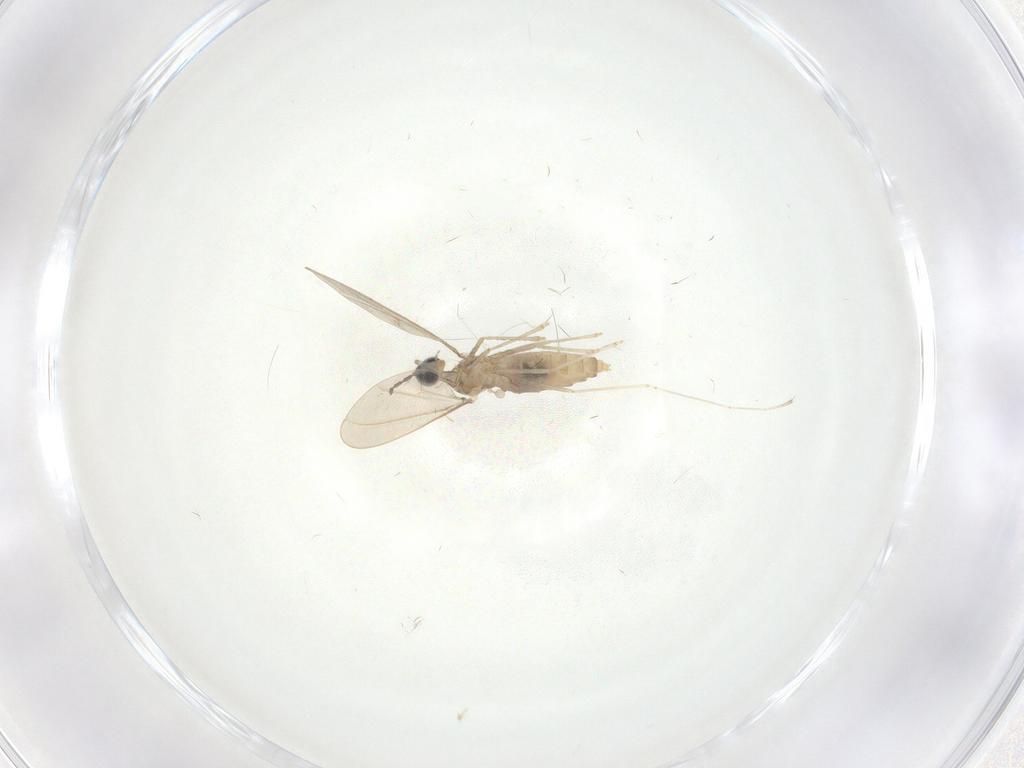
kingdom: Animalia
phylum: Arthropoda
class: Insecta
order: Diptera
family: Cecidomyiidae
